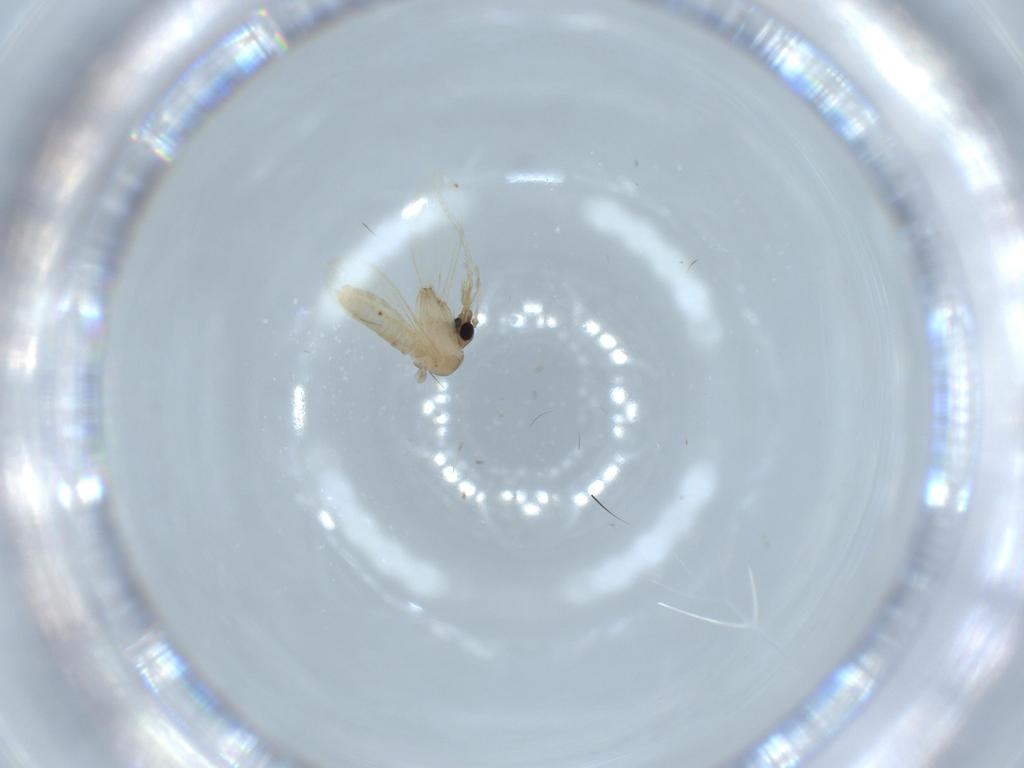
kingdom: Animalia
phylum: Arthropoda
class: Insecta
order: Diptera
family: Psychodidae
